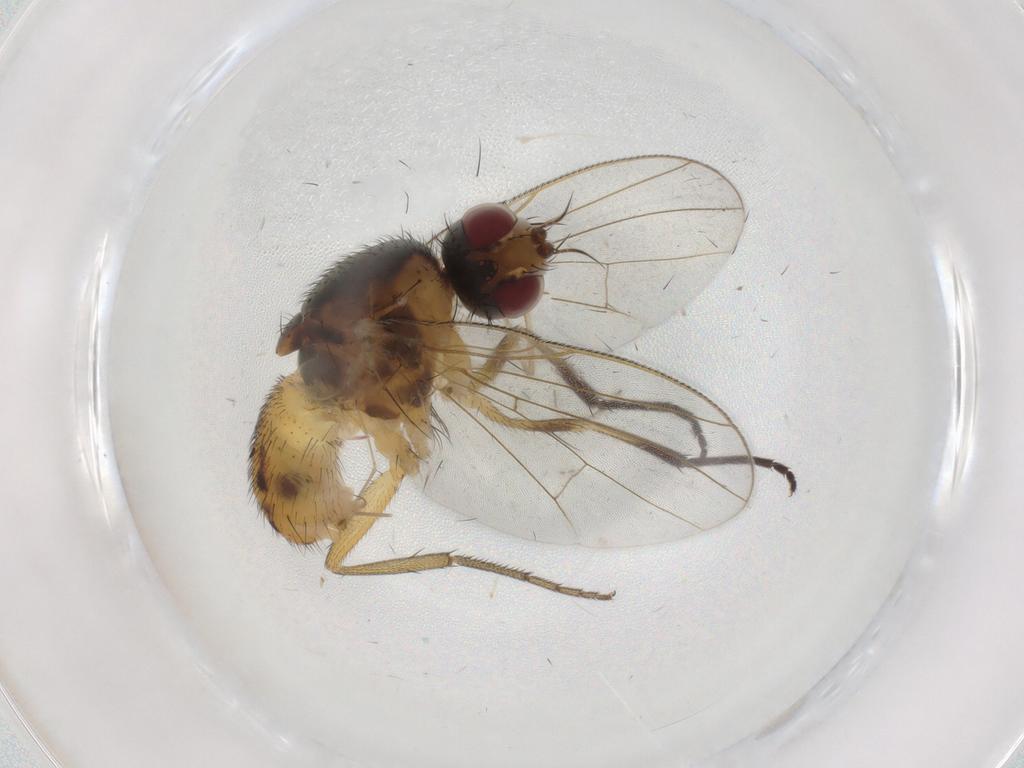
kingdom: Animalia
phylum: Arthropoda
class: Insecta
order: Diptera
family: Muscidae
